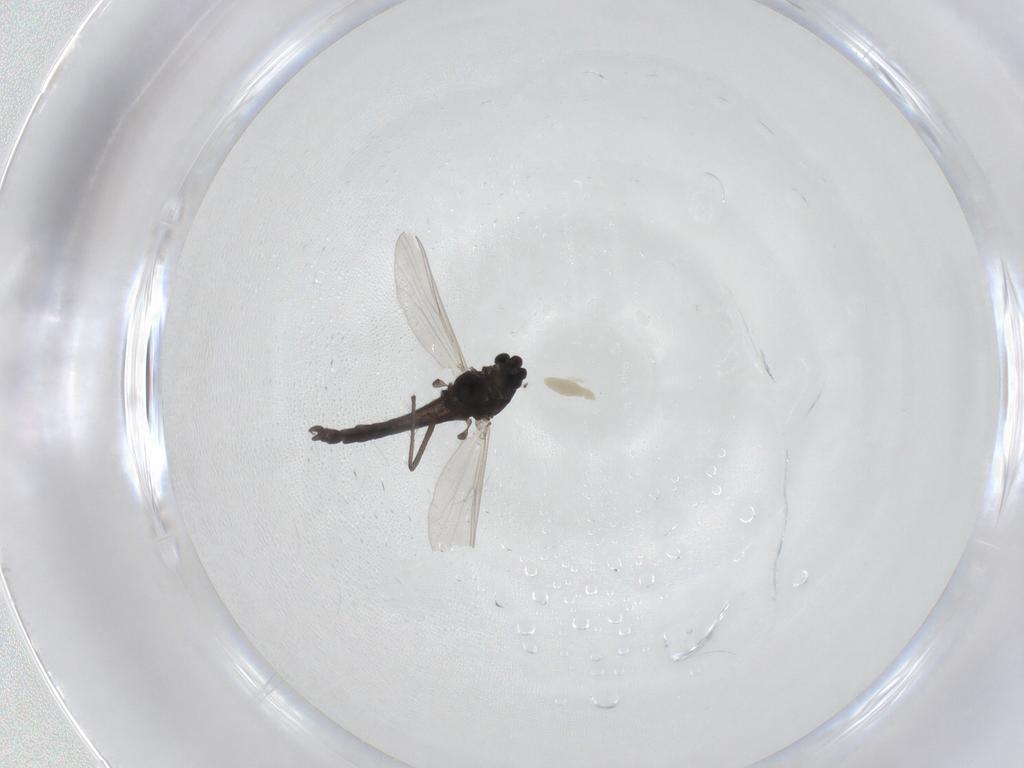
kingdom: Animalia
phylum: Arthropoda
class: Insecta
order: Diptera
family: Chironomidae
